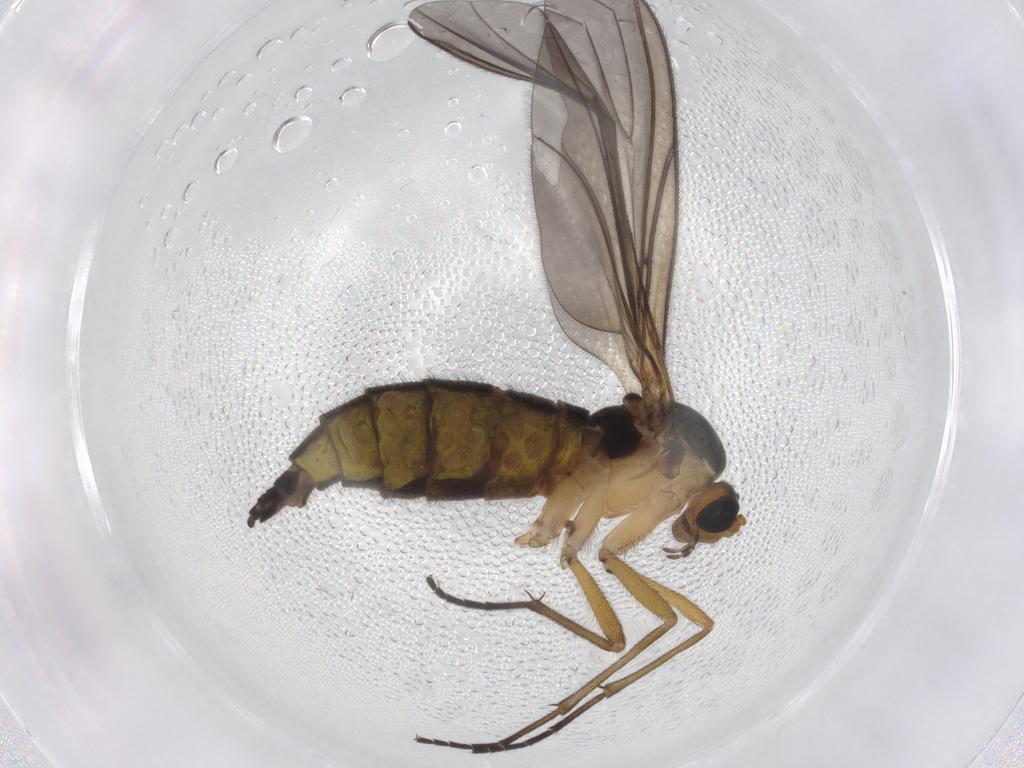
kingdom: Animalia
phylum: Arthropoda
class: Insecta
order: Diptera
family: Sciaridae
